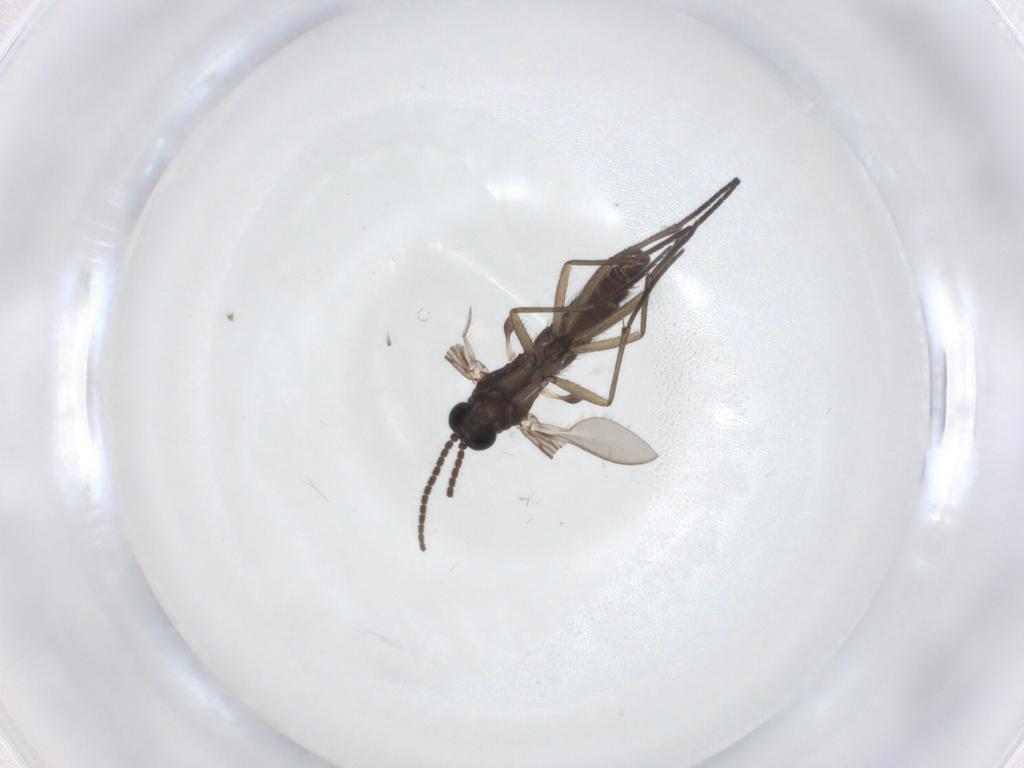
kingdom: Animalia
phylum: Arthropoda
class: Insecta
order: Diptera
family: Sciaridae
